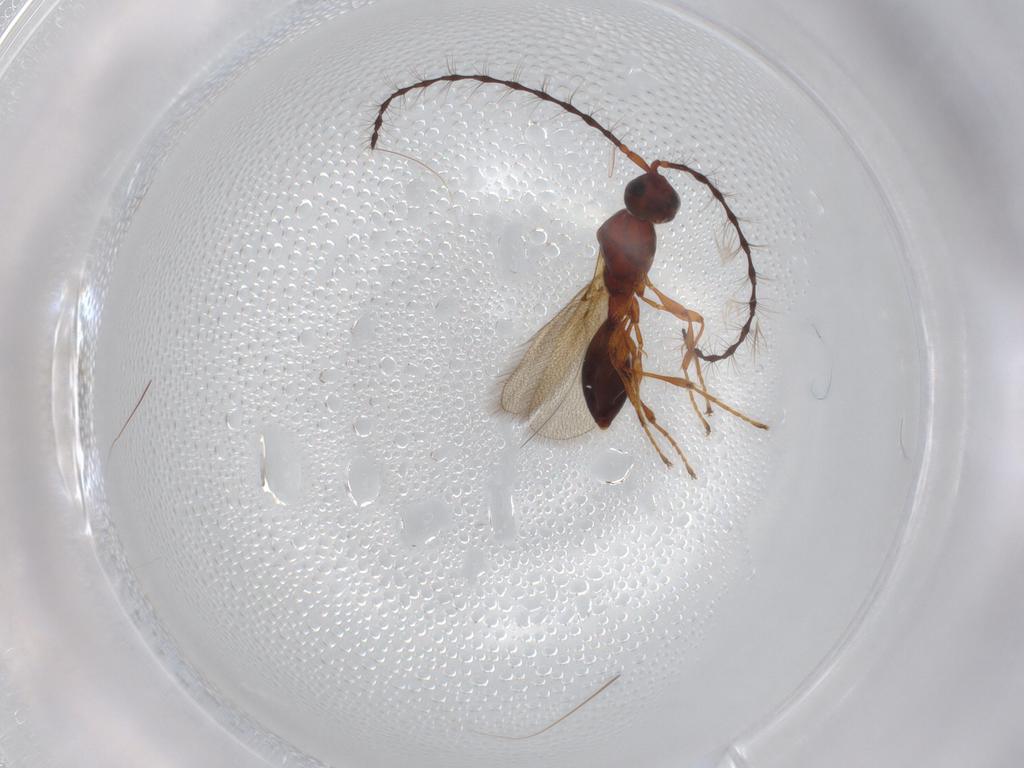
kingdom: Animalia
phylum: Arthropoda
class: Insecta
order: Hymenoptera
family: Diapriidae
